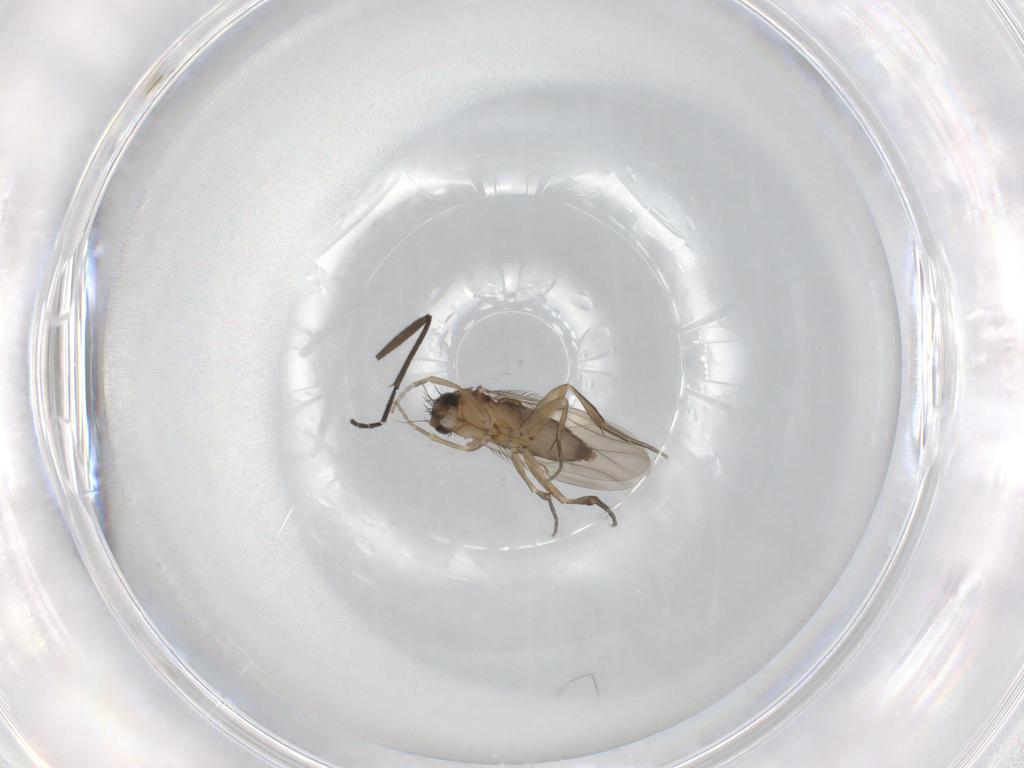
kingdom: Animalia
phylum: Arthropoda
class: Insecta
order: Diptera
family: Phoridae
